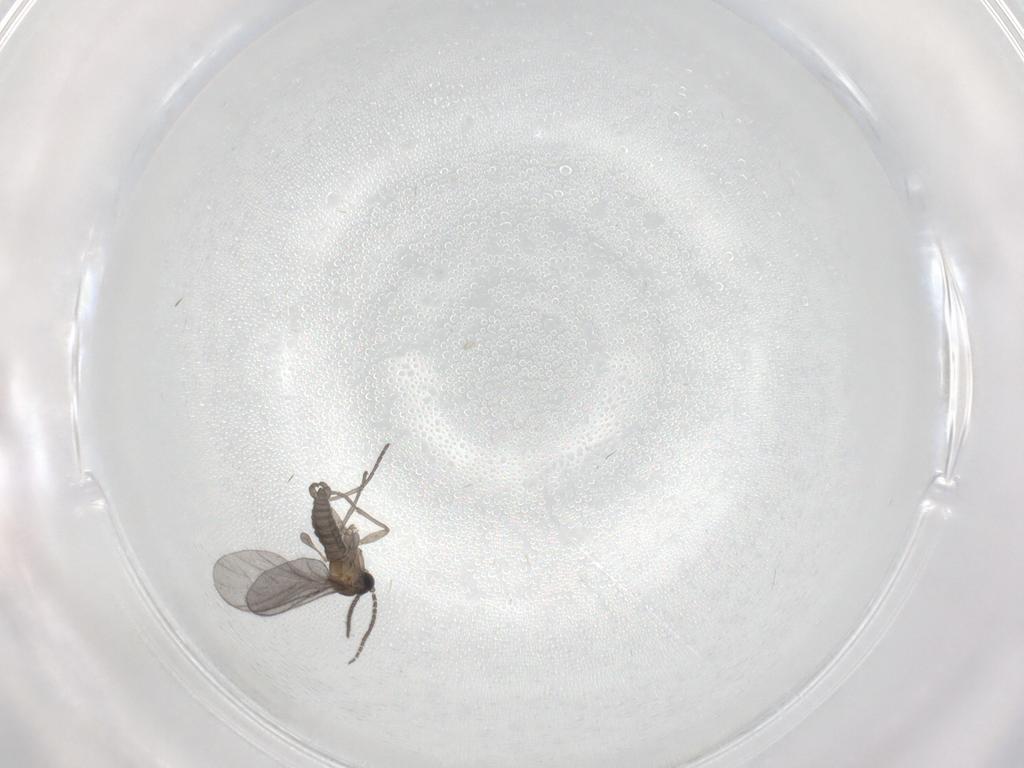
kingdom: Animalia
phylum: Arthropoda
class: Insecta
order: Diptera
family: Sciaridae
